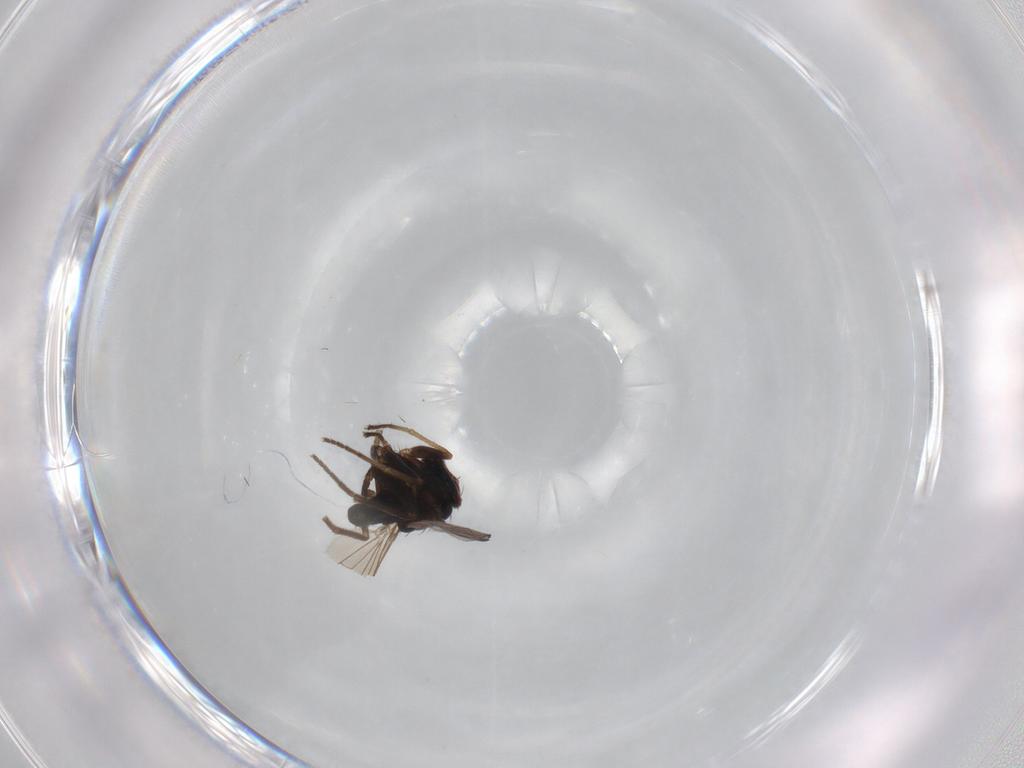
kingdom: Animalia
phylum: Arthropoda
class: Insecta
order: Diptera
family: Dolichopodidae
